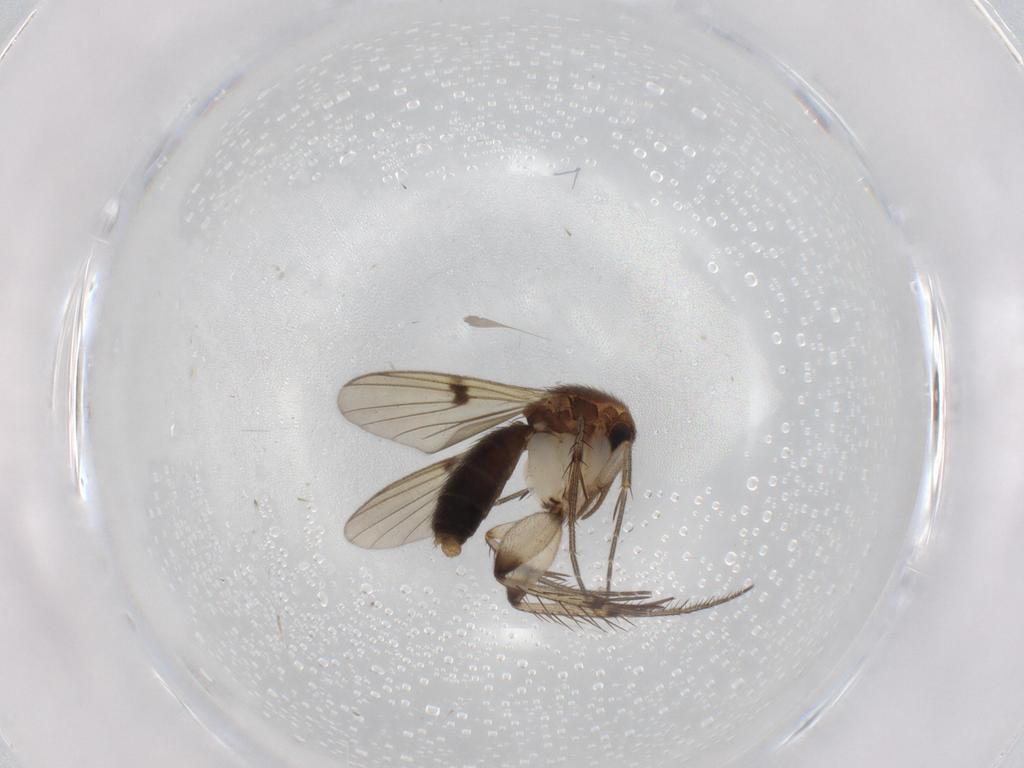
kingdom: Animalia
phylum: Arthropoda
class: Insecta
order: Diptera
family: Mycetophilidae
